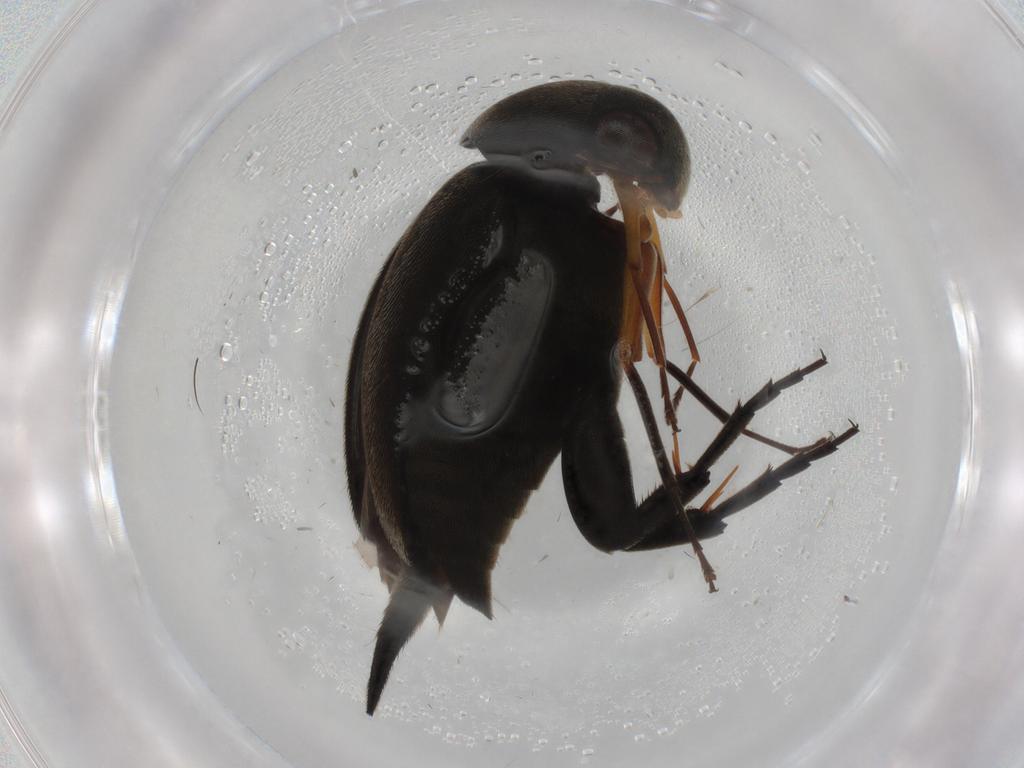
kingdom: Animalia
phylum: Arthropoda
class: Insecta
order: Coleoptera
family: Mordellidae
